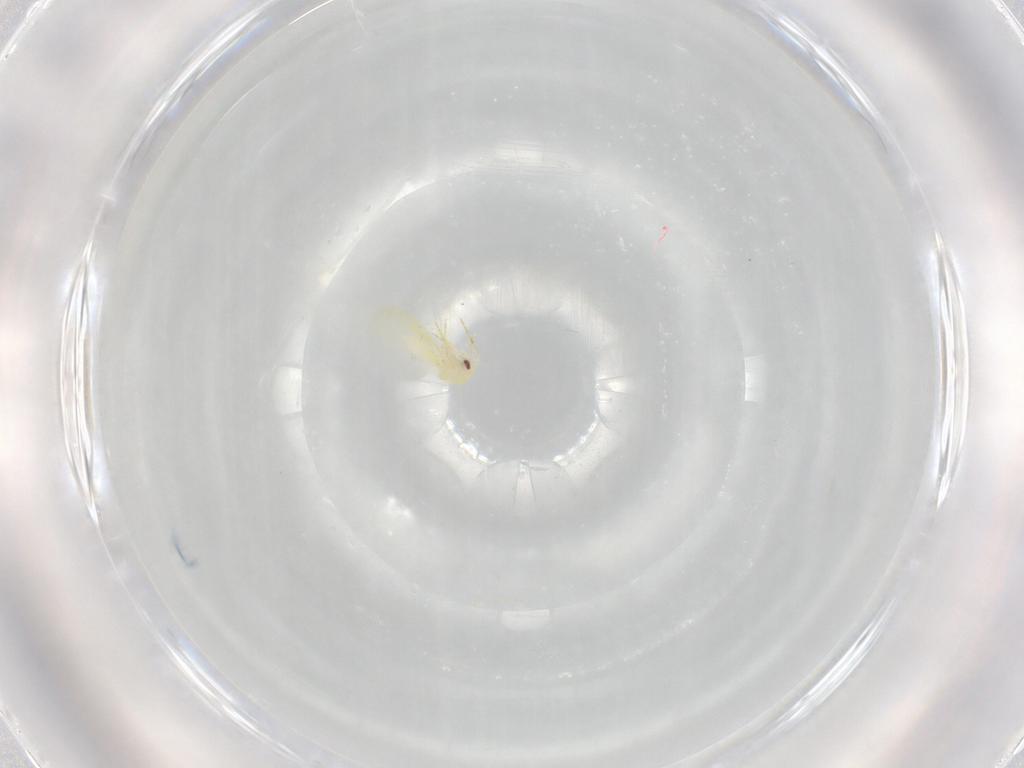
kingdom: Animalia
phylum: Arthropoda
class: Insecta
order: Hemiptera
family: Aleyrodidae
